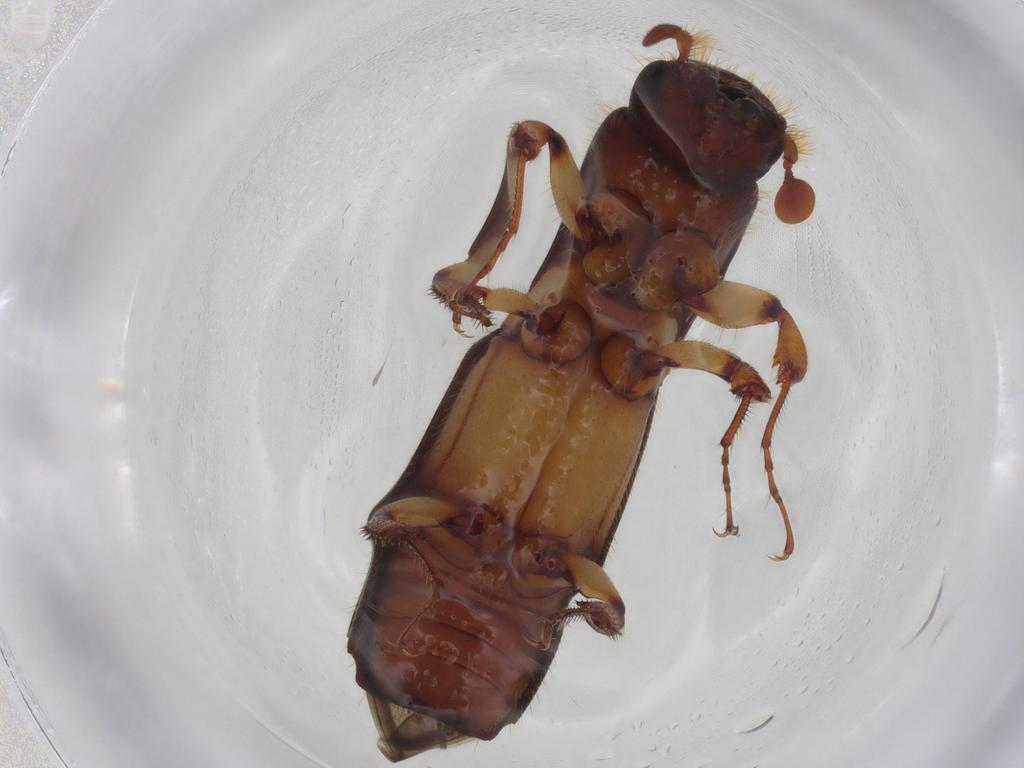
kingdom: Animalia
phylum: Arthropoda
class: Insecta
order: Coleoptera
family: Curculionidae
